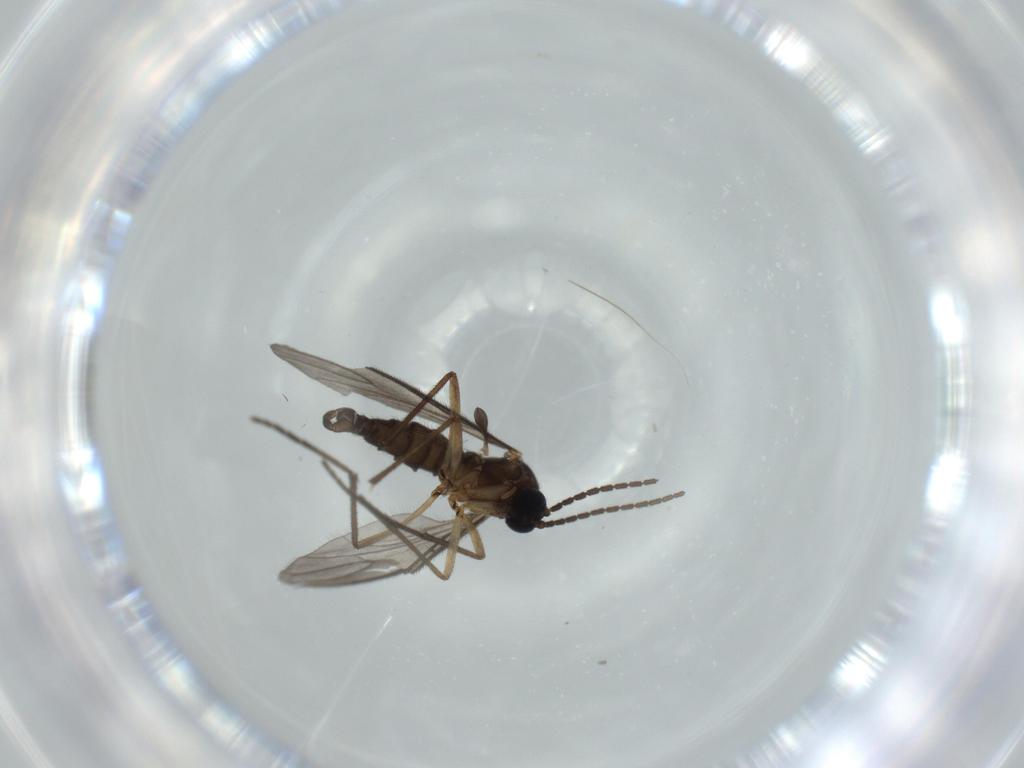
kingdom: Animalia
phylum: Arthropoda
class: Insecta
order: Diptera
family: Sciaridae
